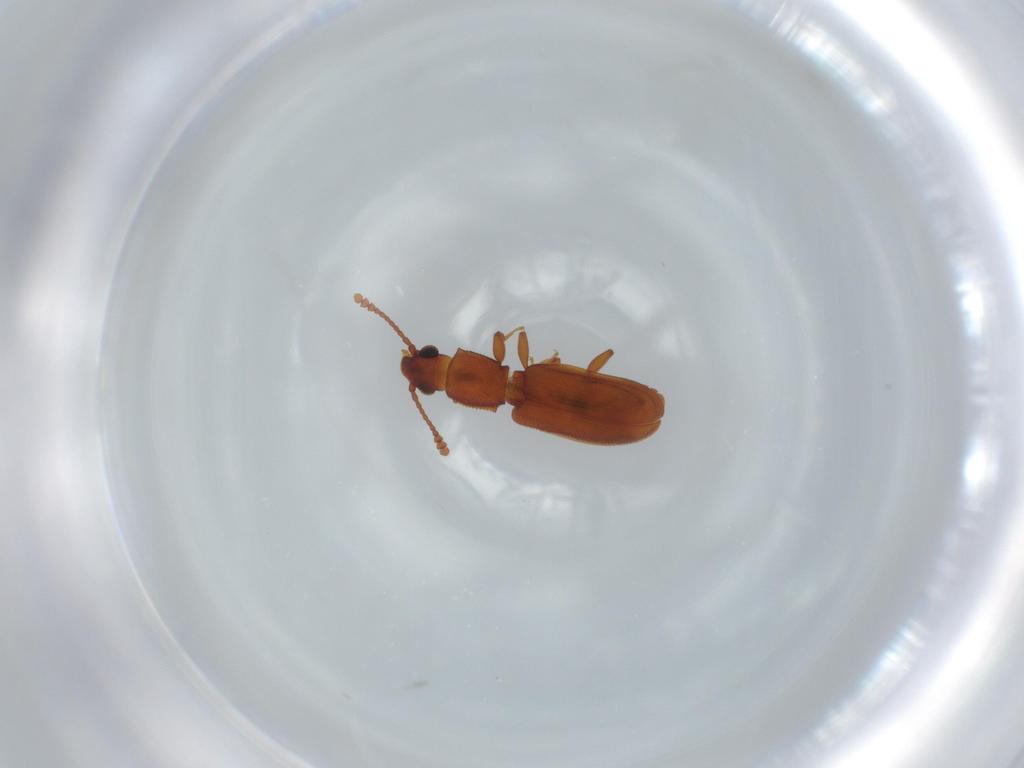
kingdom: Animalia
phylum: Arthropoda
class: Insecta
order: Coleoptera
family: Silvanidae
